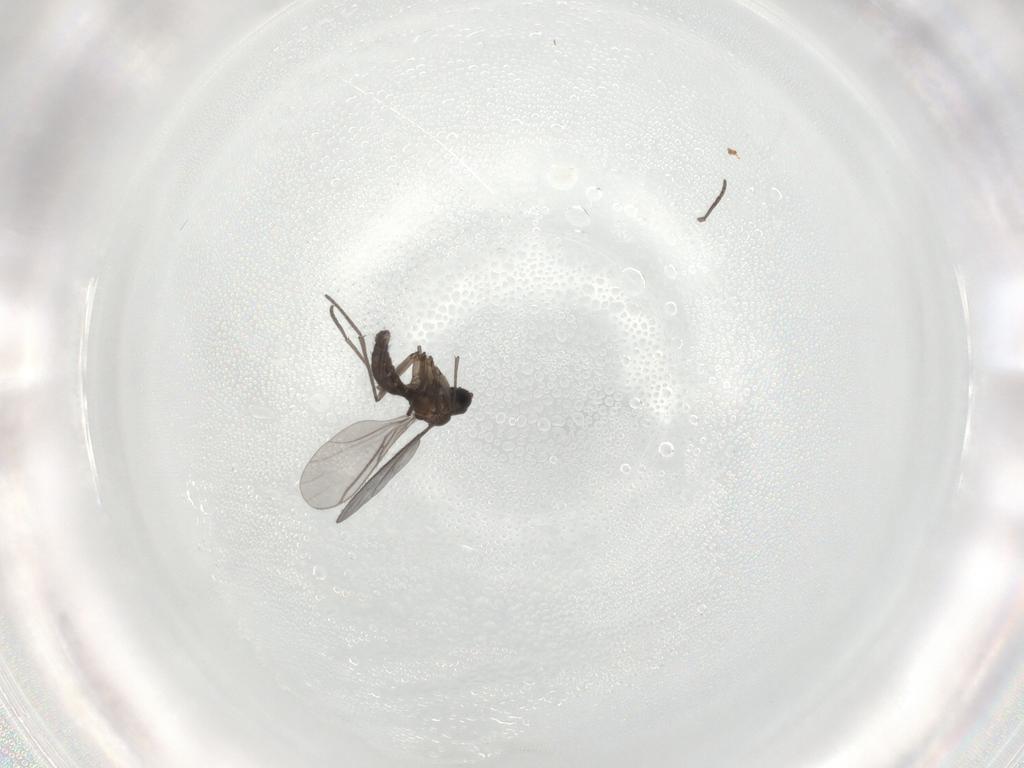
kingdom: Animalia
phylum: Arthropoda
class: Insecta
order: Diptera
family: Sciaridae
